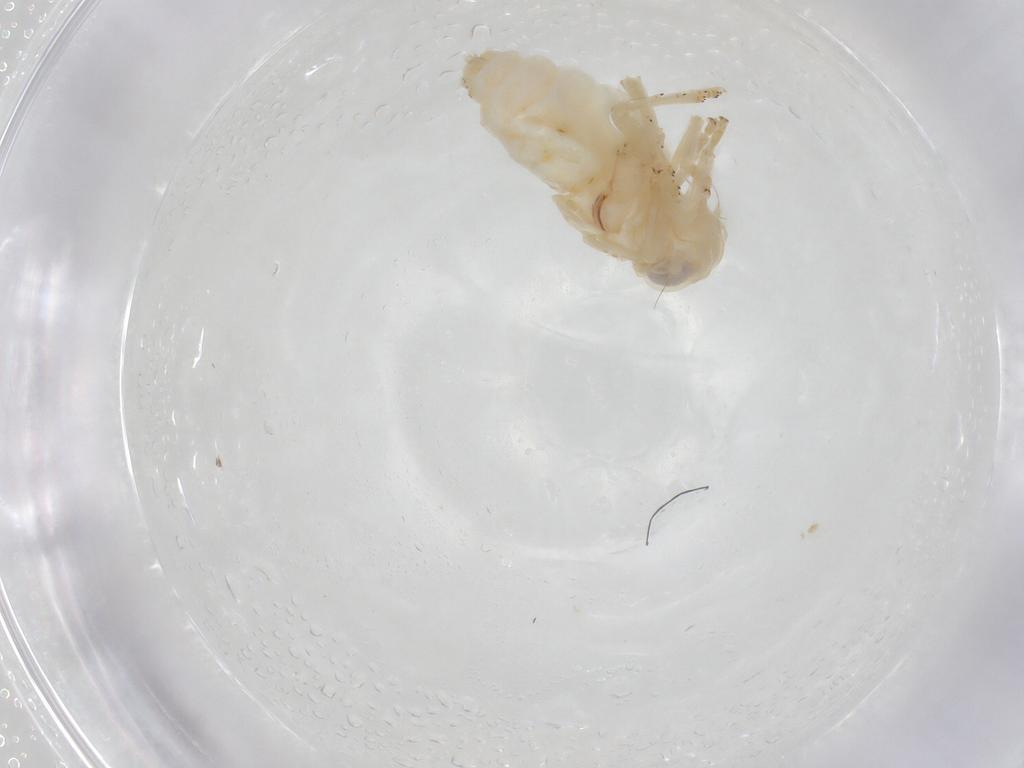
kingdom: Animalia
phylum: Arthropoda
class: Insecta
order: Hemiptera
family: Nogodinidae
